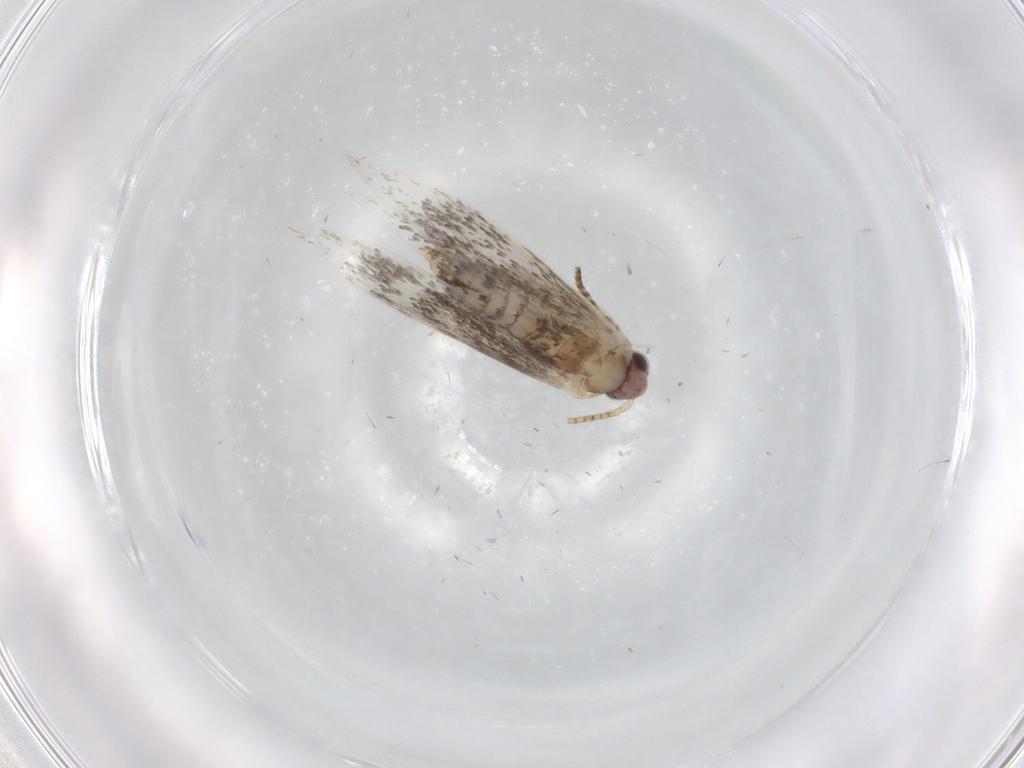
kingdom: Animalia
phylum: Arthropoda
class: Insecta
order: Lepidoptera
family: Tineidae
